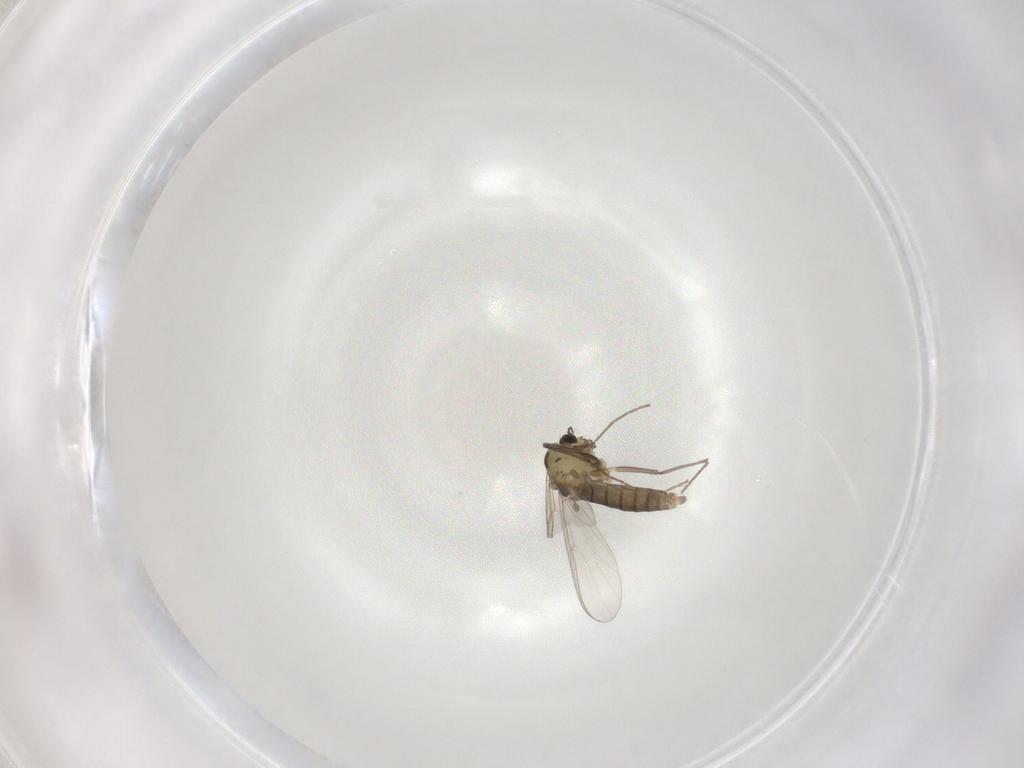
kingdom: Animalia
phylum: Arthropoda
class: Insecta
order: Diptera
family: Chironomidae
